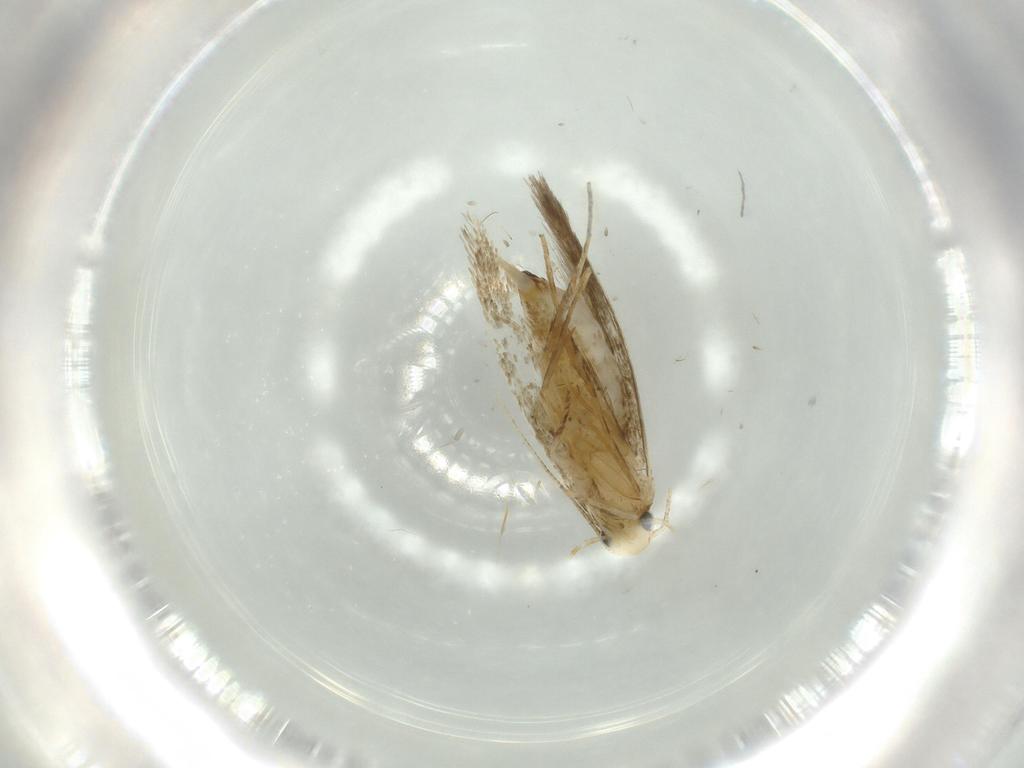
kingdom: Animalia
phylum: Arthropoda
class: Insecta
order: Lepidoptera
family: Tineidae
